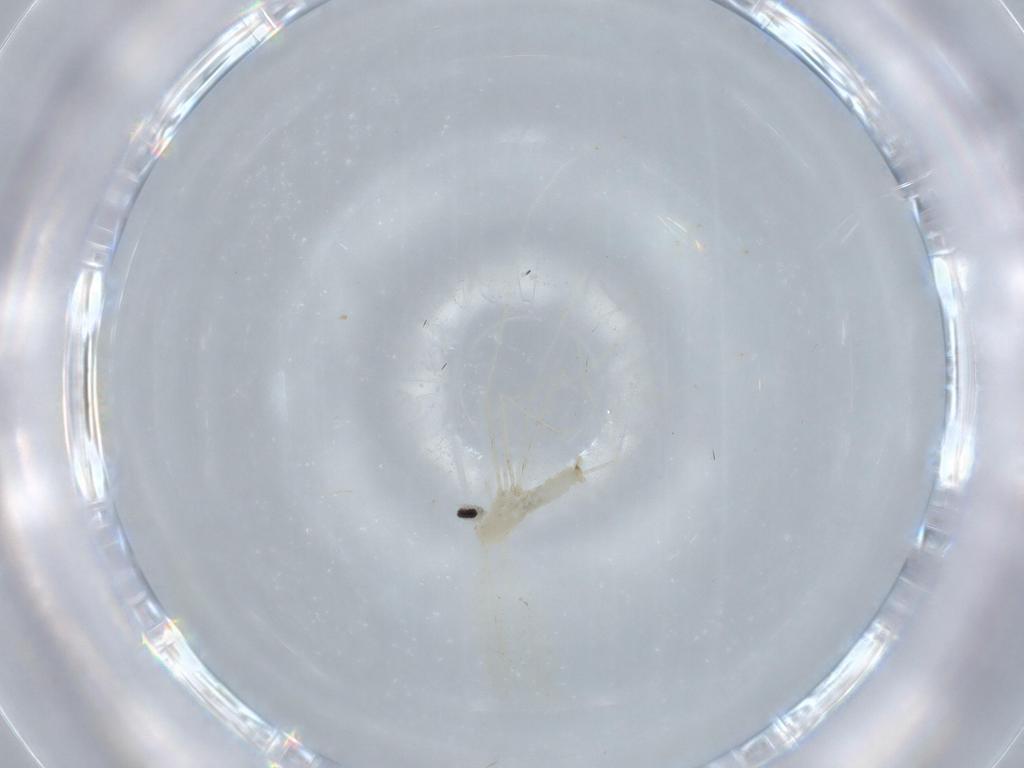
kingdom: Animalia
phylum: Arthropoda
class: Insecta
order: Diptera
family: Cecidomyiidae
